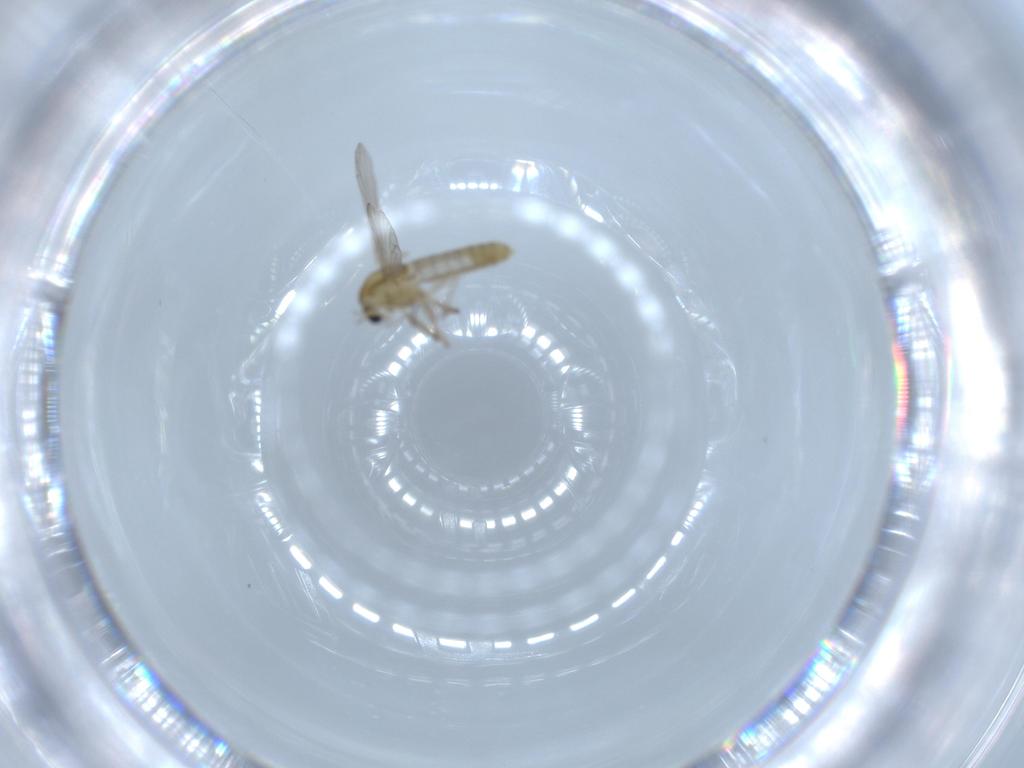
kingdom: Animalia
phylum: Arthropoda
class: Insecta
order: Diptera
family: Chironomidae
